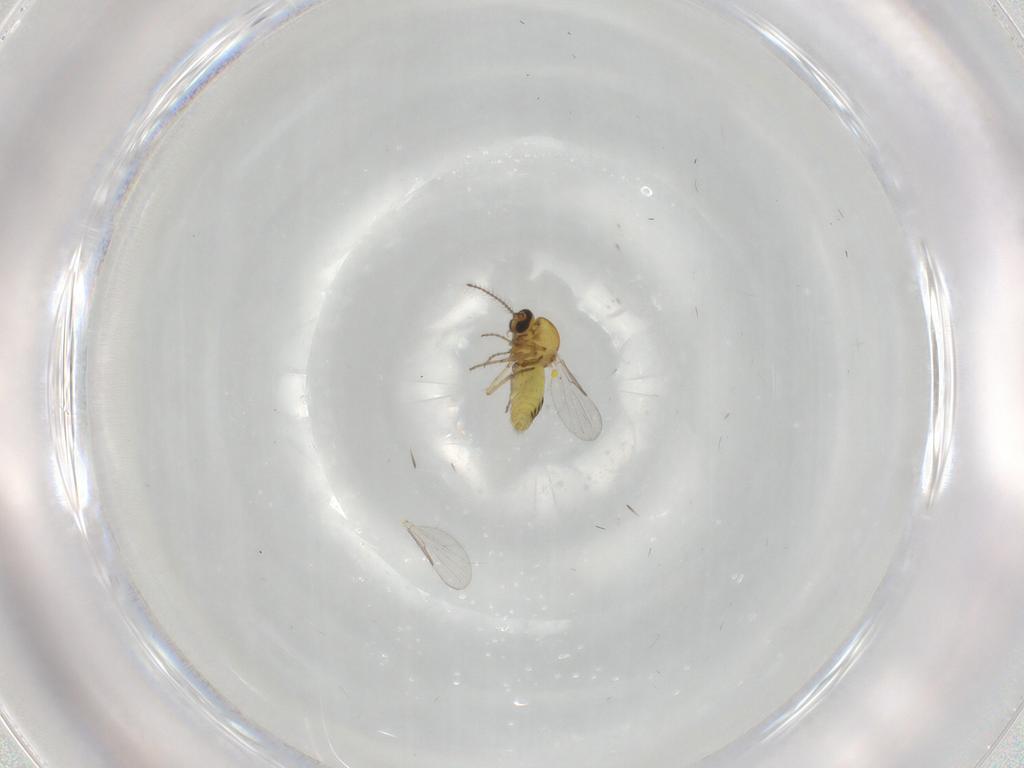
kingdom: Animalia
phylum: Arthropoda
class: Insecta
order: Diptera
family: Ceratopogonidae
